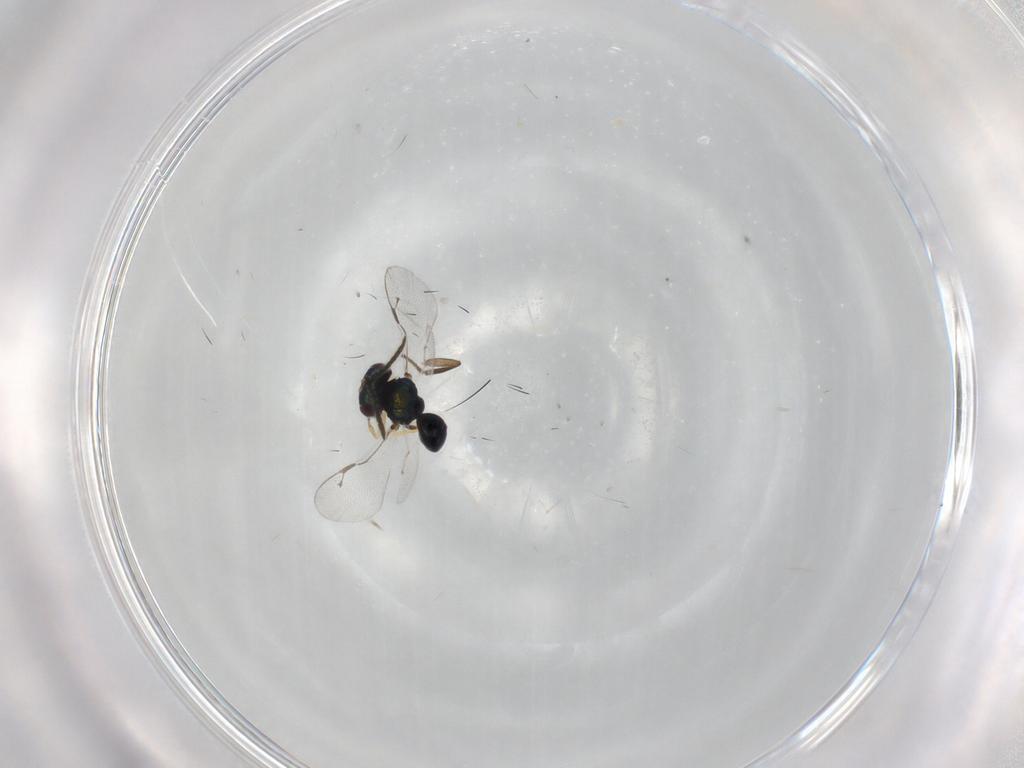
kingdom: Animalia
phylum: Arthropoda
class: Insecta
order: Hymenoptera
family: Pteromalidae
